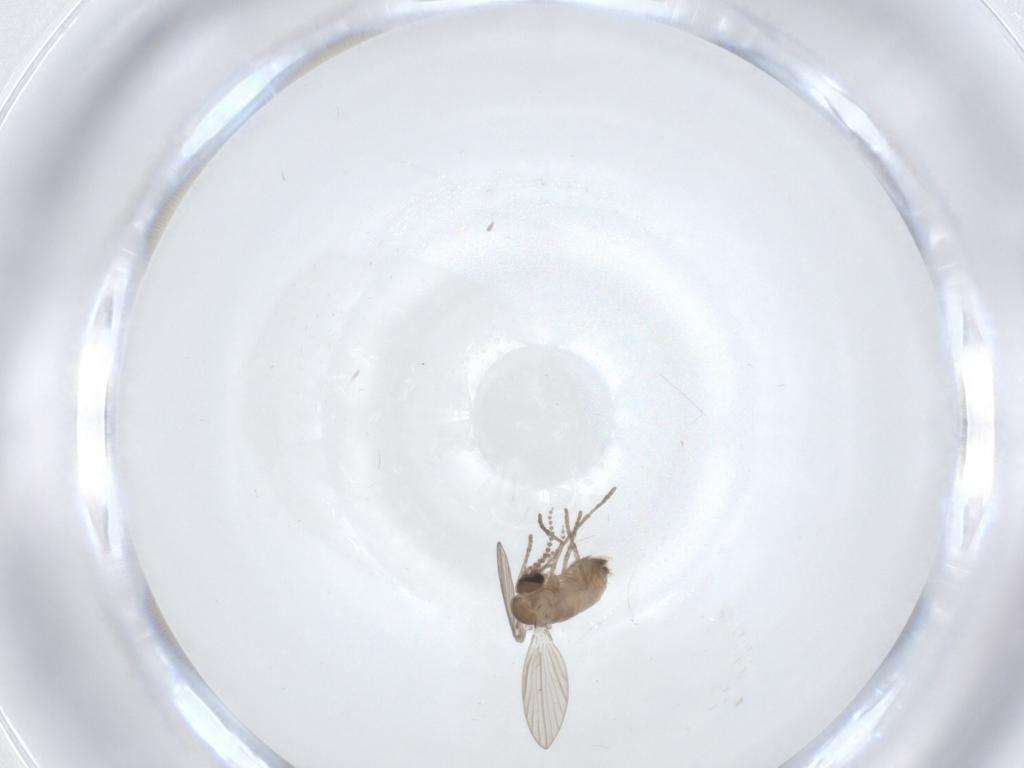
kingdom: Animalia
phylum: Arthropoda
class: Insecta
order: Diptera
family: Psychodidae
